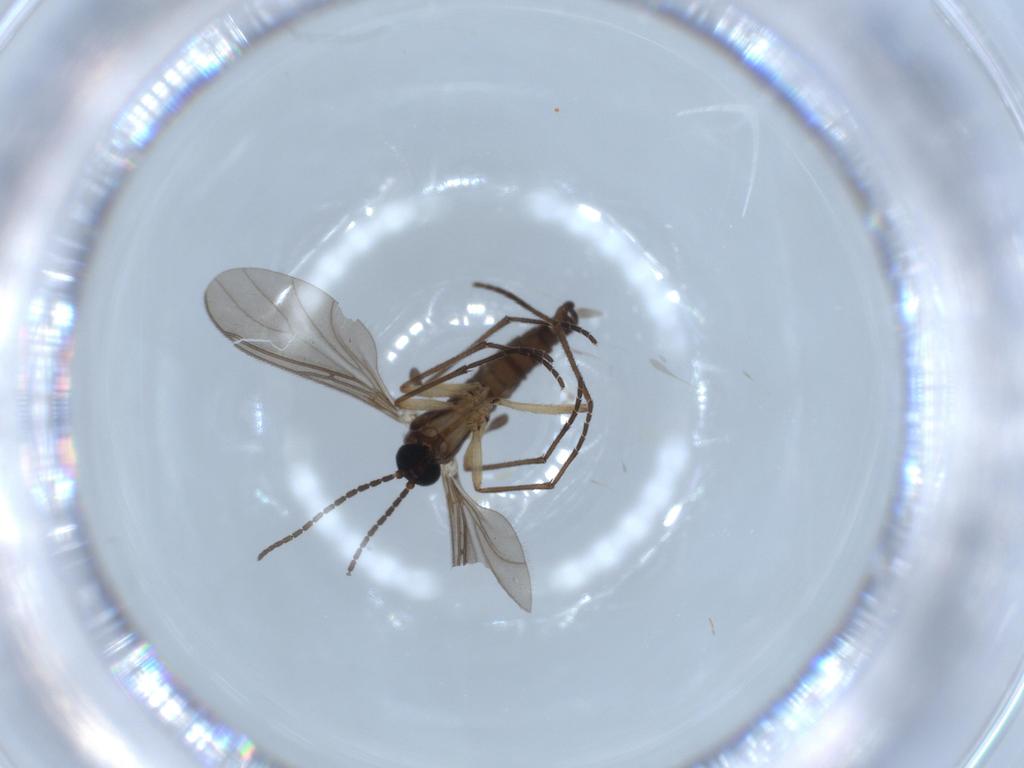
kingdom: Animalia
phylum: Arthropoda
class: Insecta
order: Diptera
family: Sciaridae
